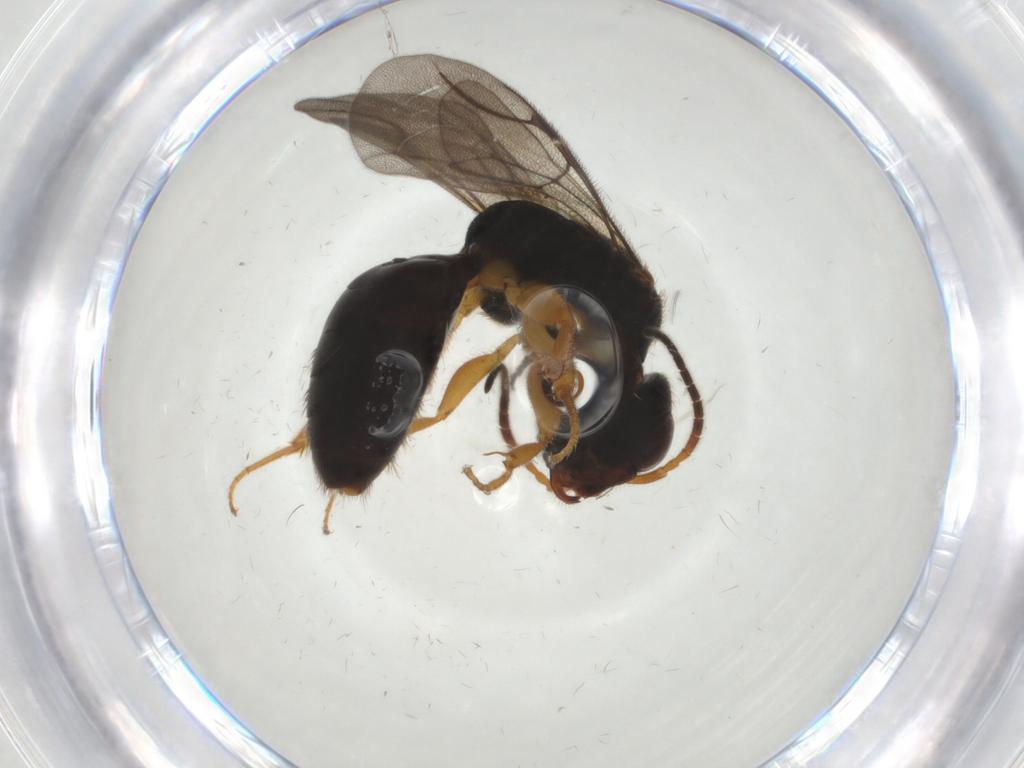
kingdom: Animalia
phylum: Arthropoda
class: Insecta
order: Hymenoptera
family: Bethylidae
